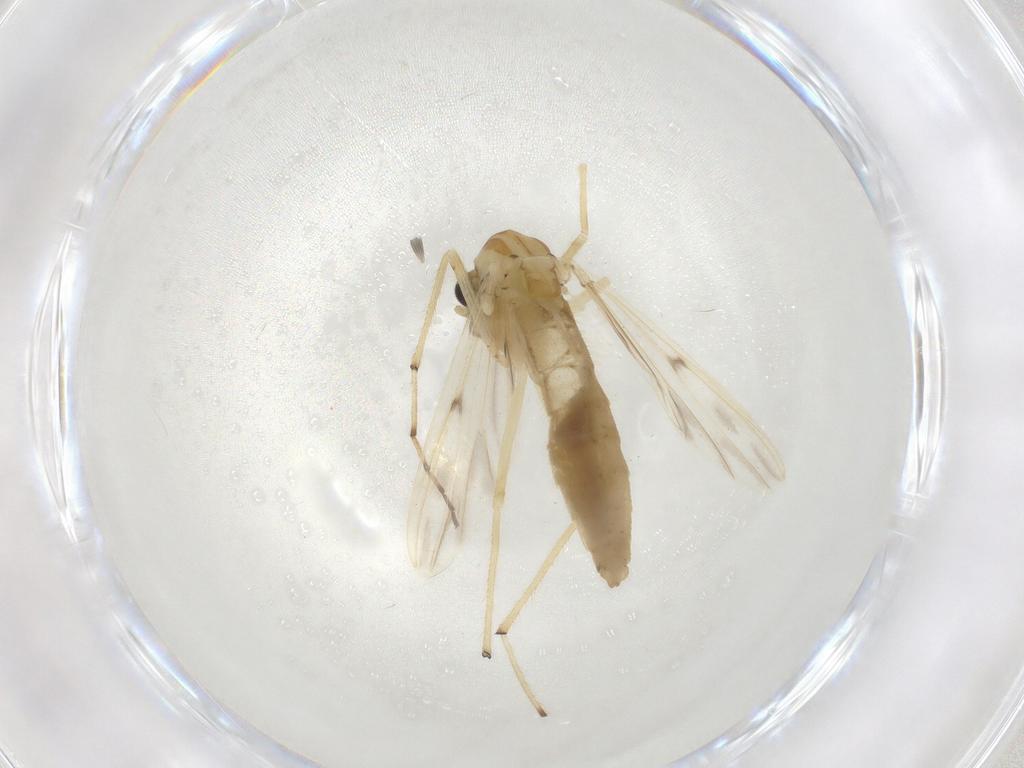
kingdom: Animalia
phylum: Arthropoda
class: Insecta
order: Diptera
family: Chironomidae
